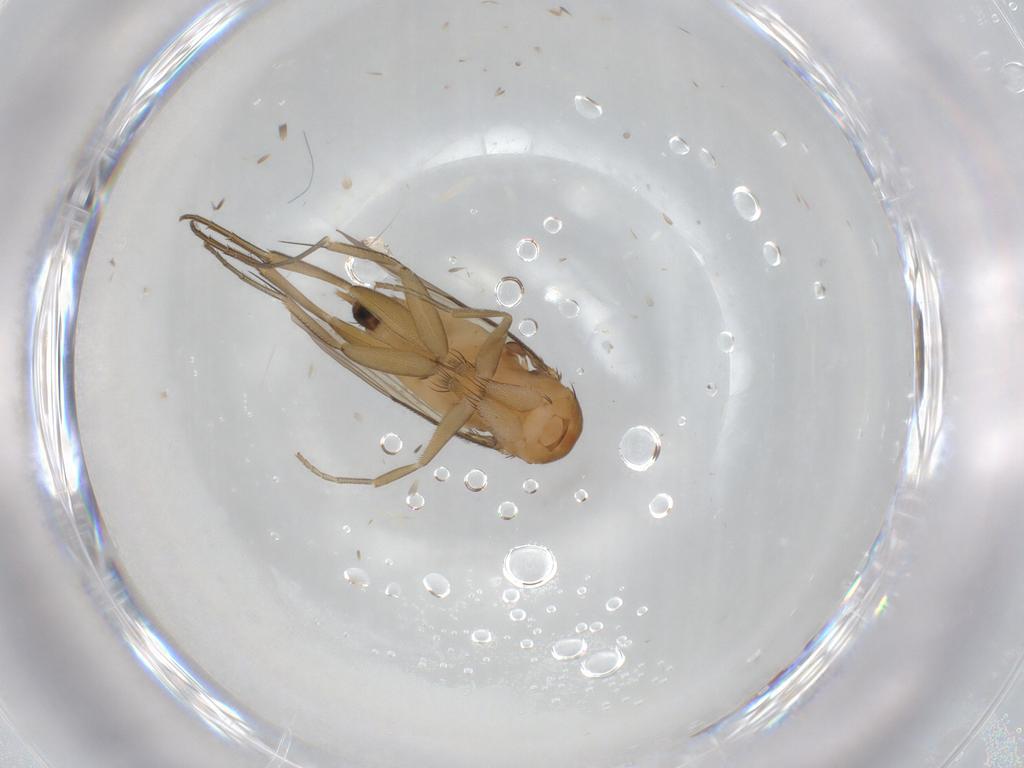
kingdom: Animalia
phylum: Arthropoda
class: Insecta
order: Diptera
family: Phoridae
